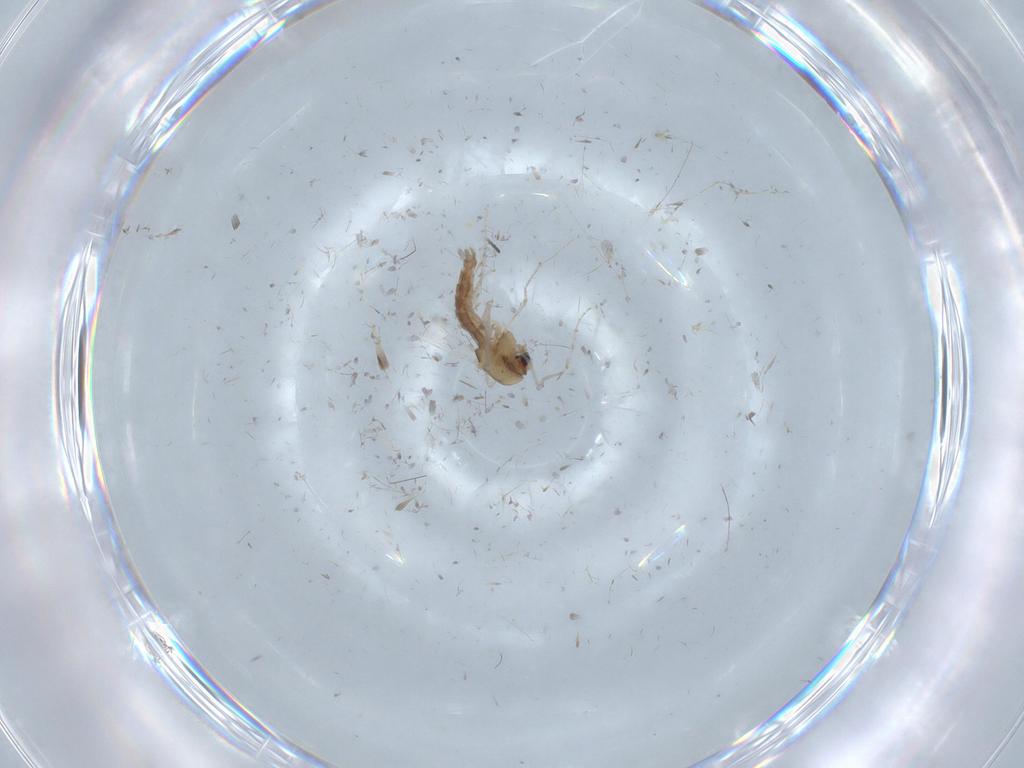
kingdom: Animalia
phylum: Arthropoda
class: Insecta
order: Diptera
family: Chironomidae
